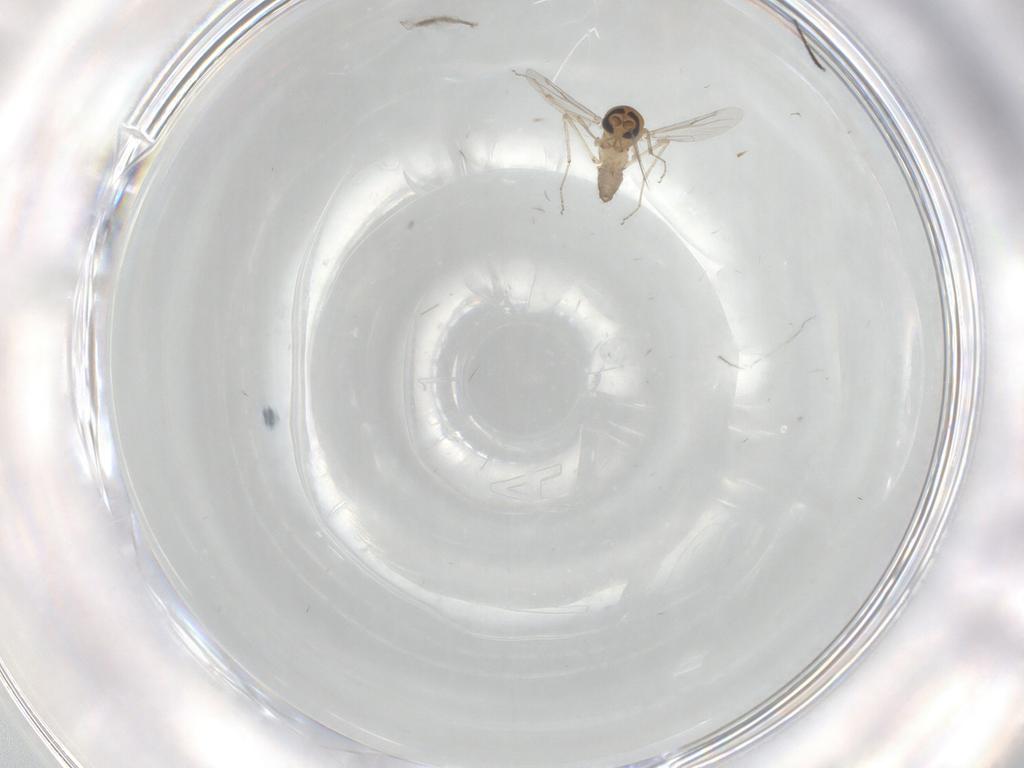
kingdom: Animalia
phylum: Arthropoda
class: Insecta
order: Diptera
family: Sciaridae
